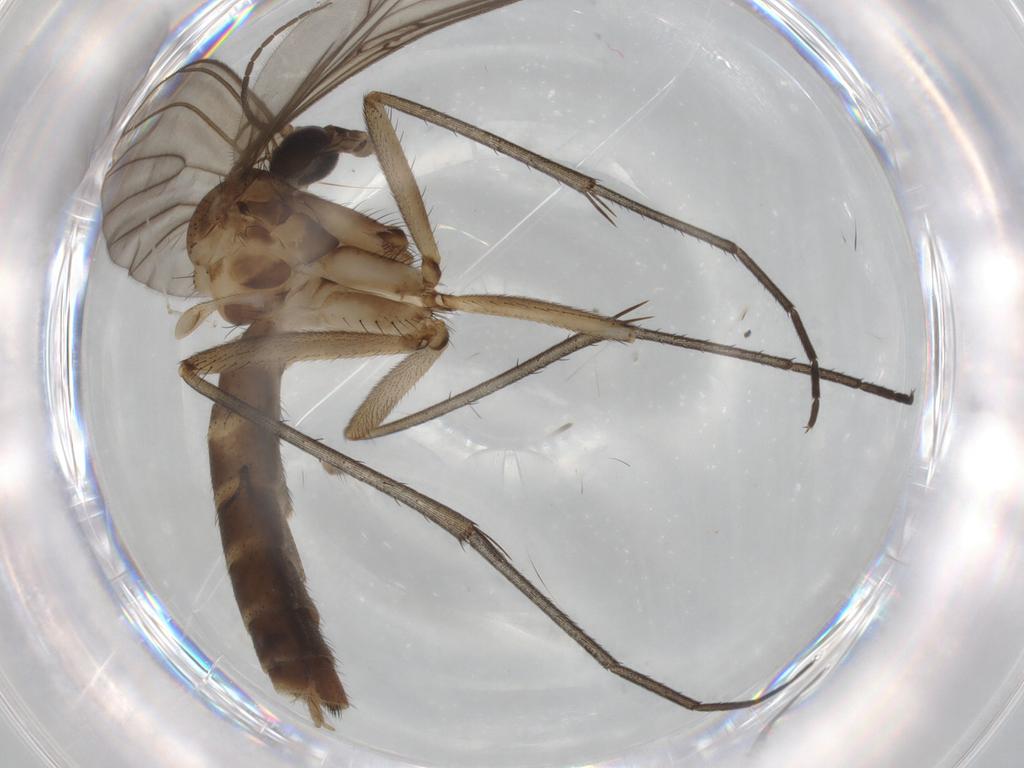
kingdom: Animalia
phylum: Arthropoda
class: Insecta
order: Diptera
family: Mycetophilidae
